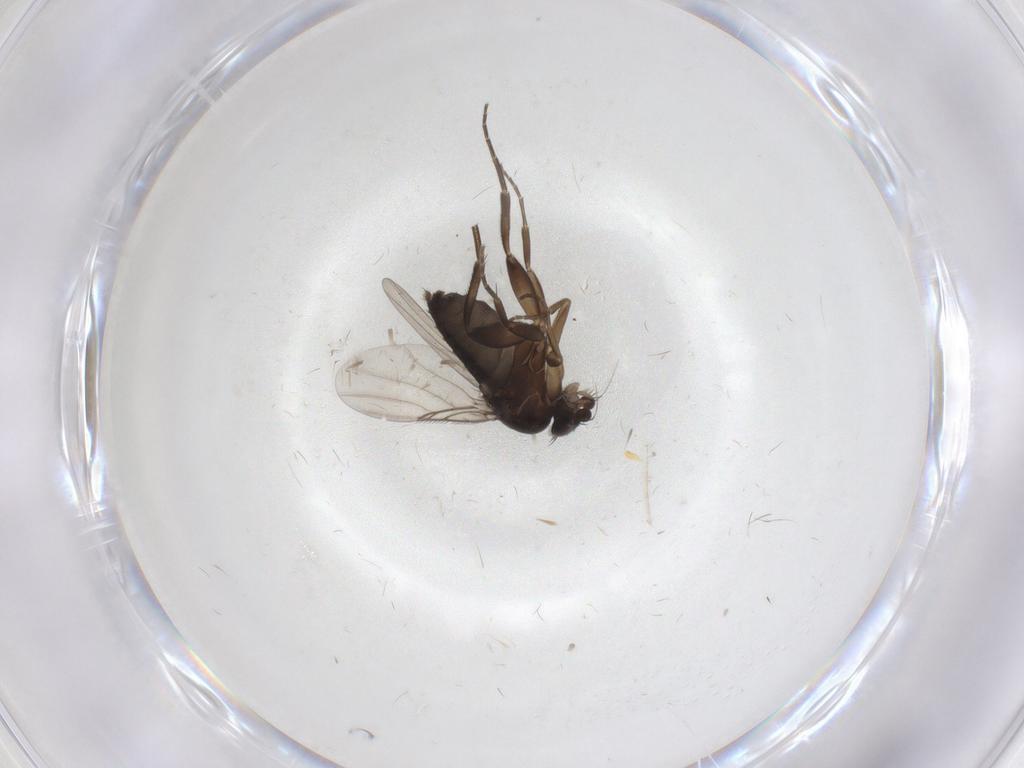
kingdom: Animalia
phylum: Arthropoda
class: Insecta
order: Diptera
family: Phoridae
